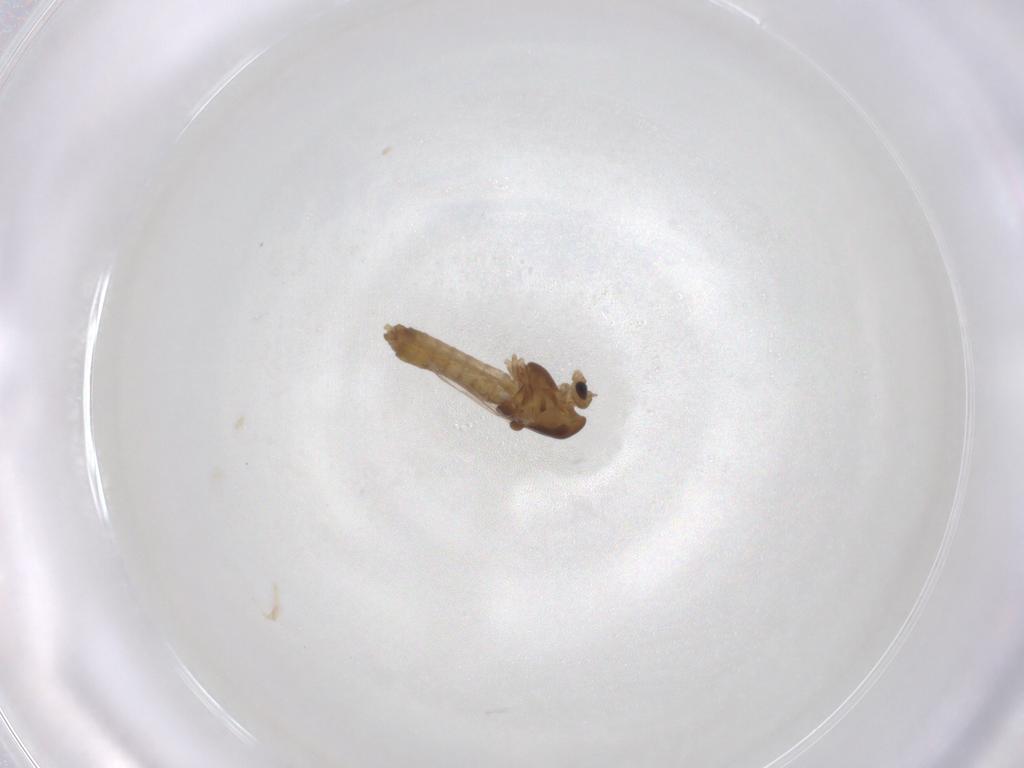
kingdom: Animalia
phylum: Arthropoda
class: Insecta
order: Diptera
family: Chironomidae
